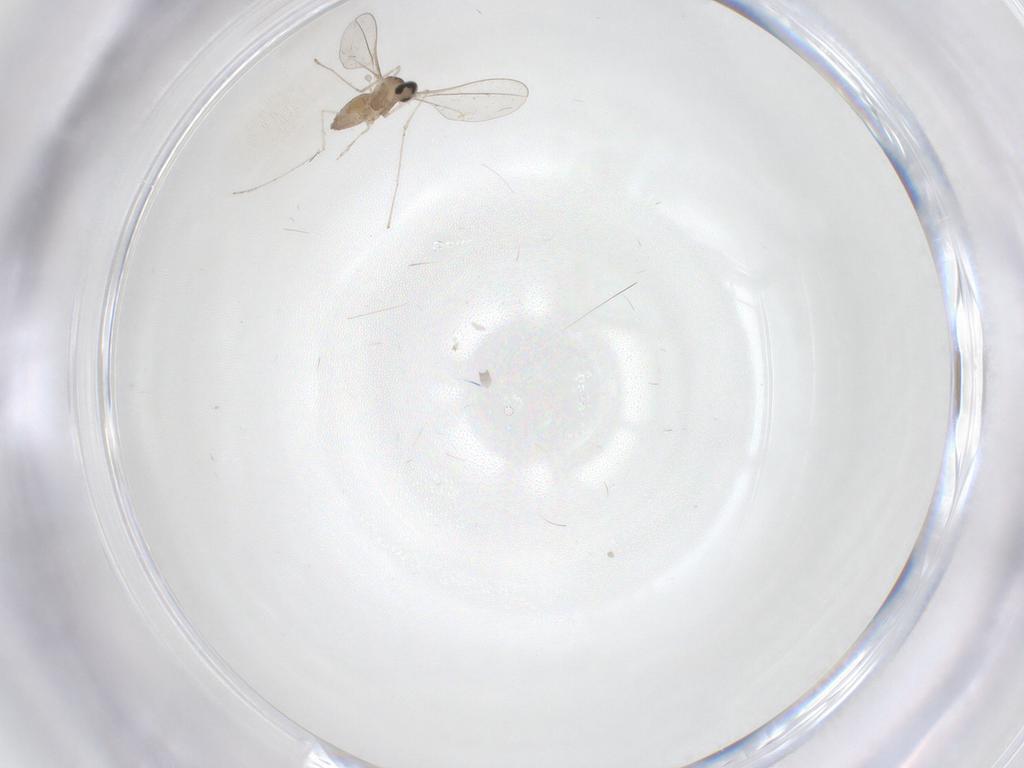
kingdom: Animalia
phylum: Arthropoda
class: Insecta
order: Diptera
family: Cecidomyiidae
